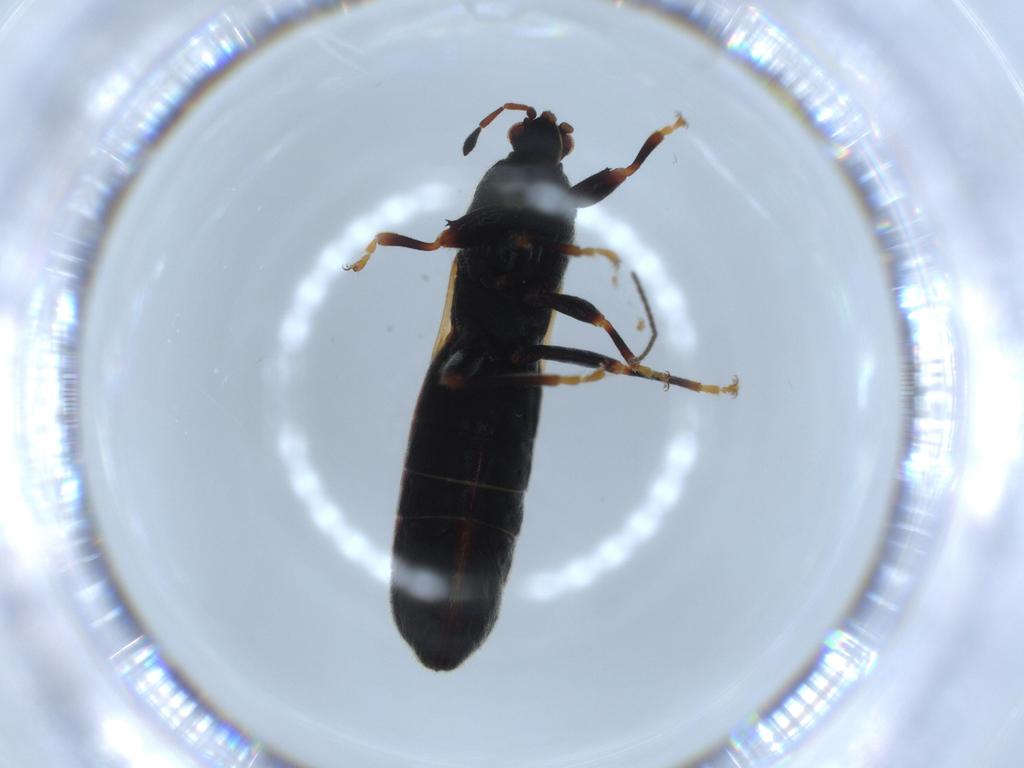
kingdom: Animalia
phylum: Arthropoda
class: Insecta
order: Hemiptera
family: Blissidae
